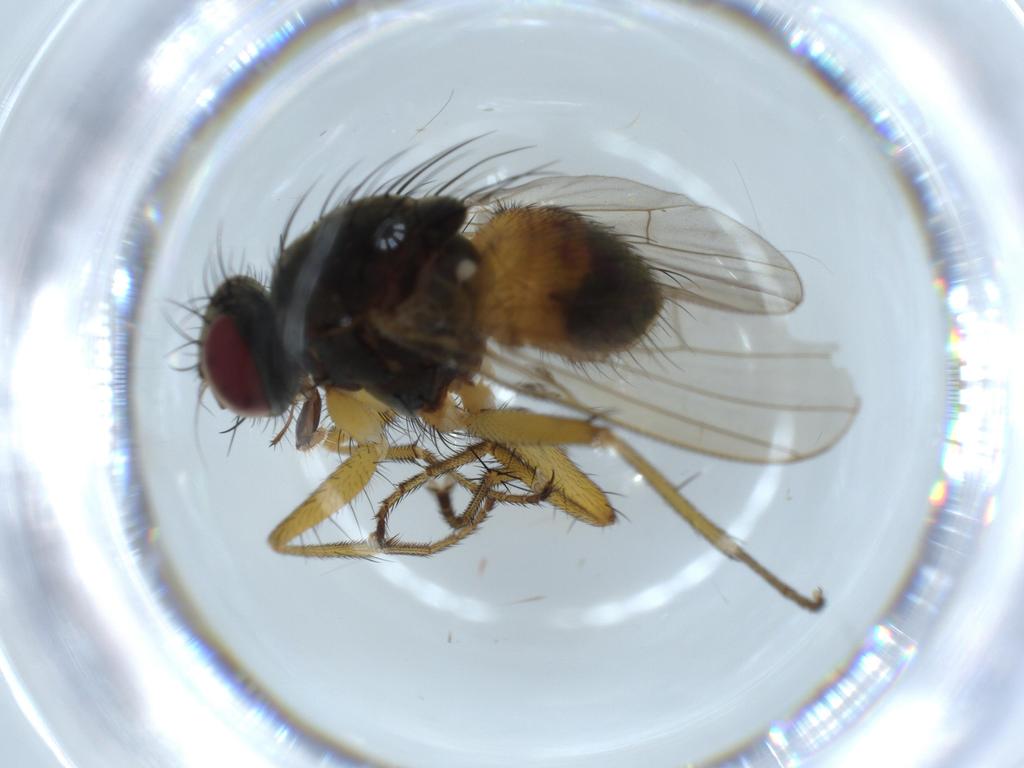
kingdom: Animalia
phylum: Arthropoda
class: Insecta
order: Diptera
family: Muscidae
